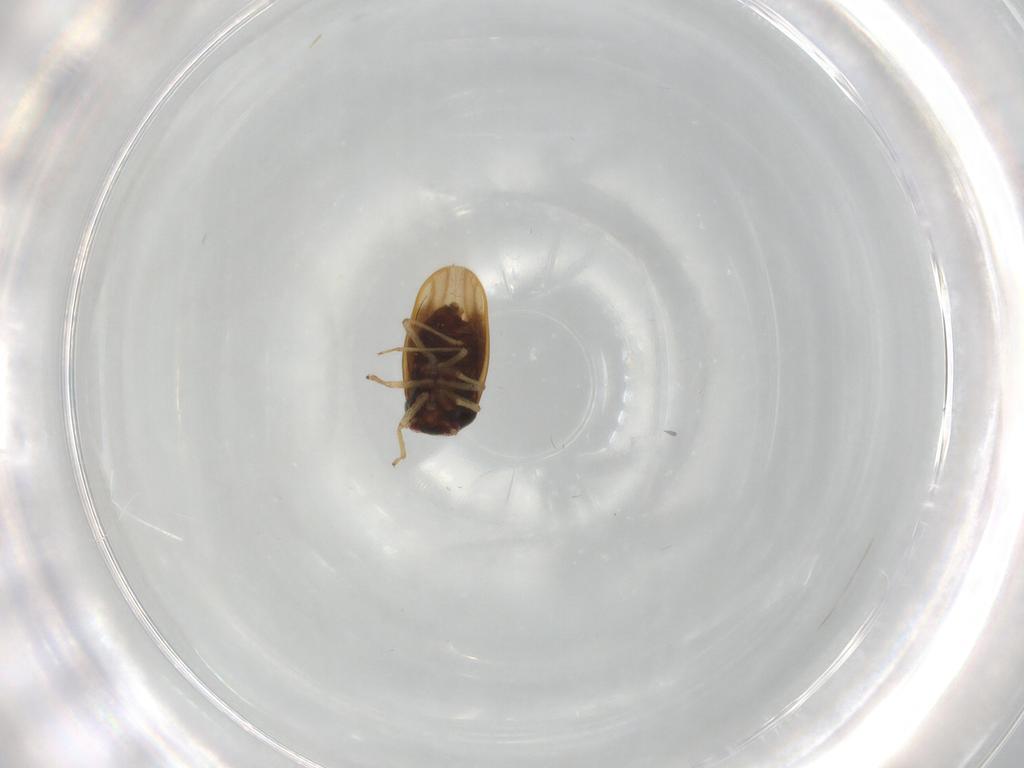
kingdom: Animalia
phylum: Arthropoda
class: Insecta
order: Hemiptera
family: Schizopteridae
